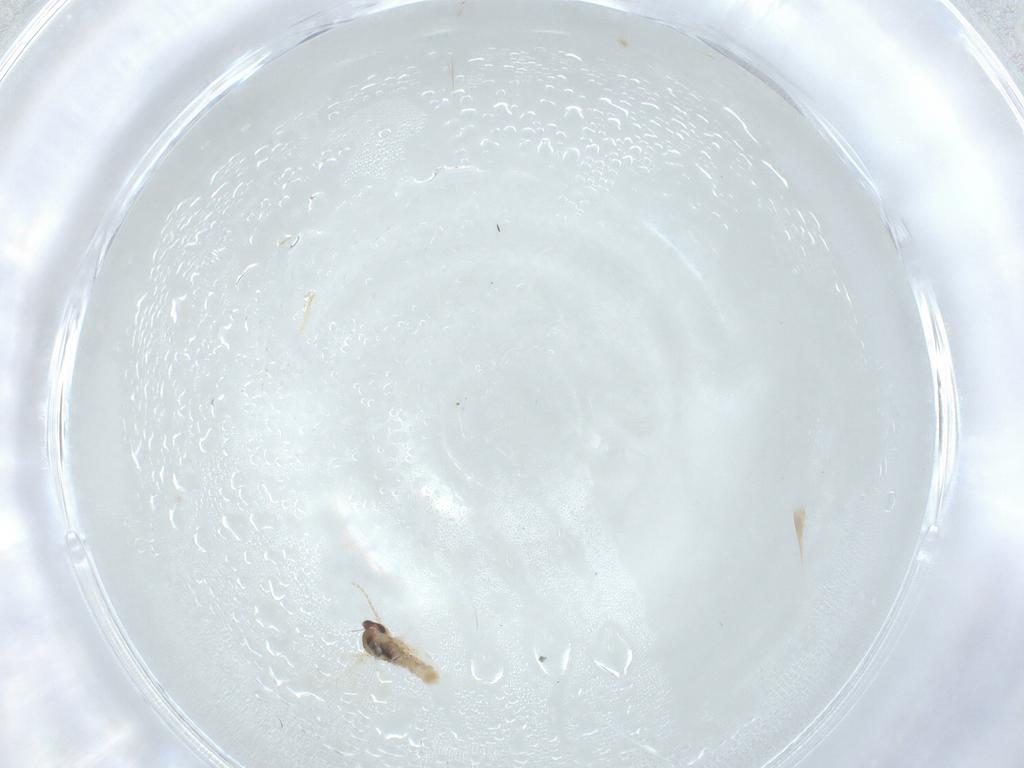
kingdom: Animalia
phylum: Arthropoda
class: Insecta
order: Diptera
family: Cecidomyiidae
